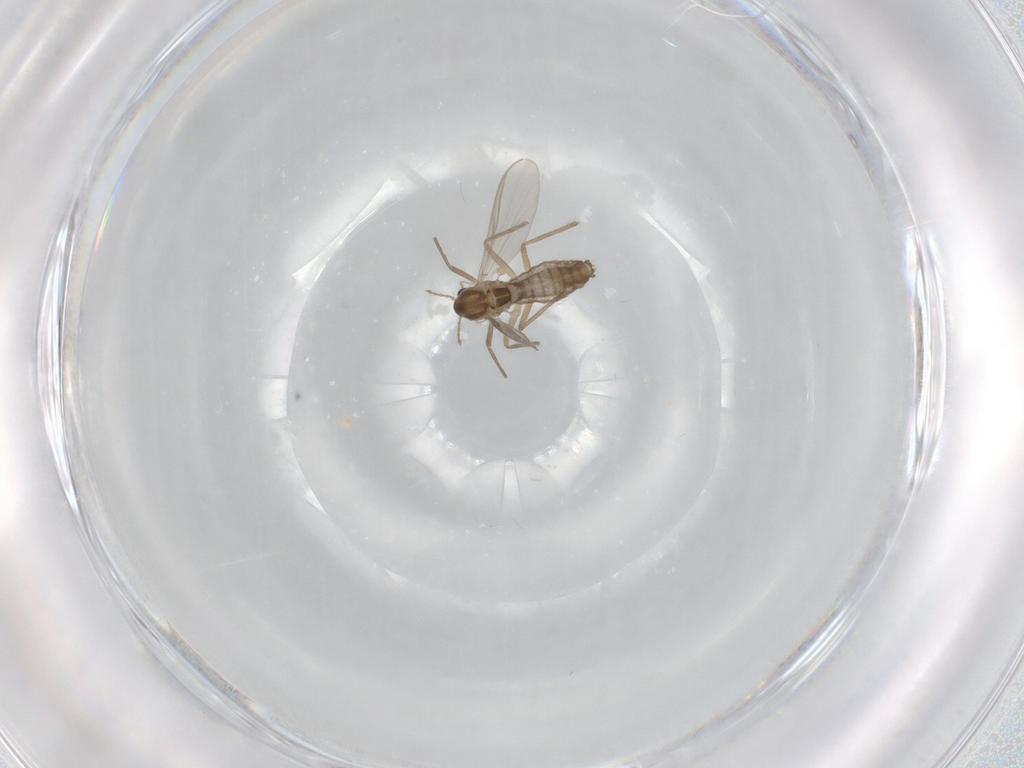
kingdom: Animalia
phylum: Arthropoda
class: Insecta
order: Diptera
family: Chironomidae
